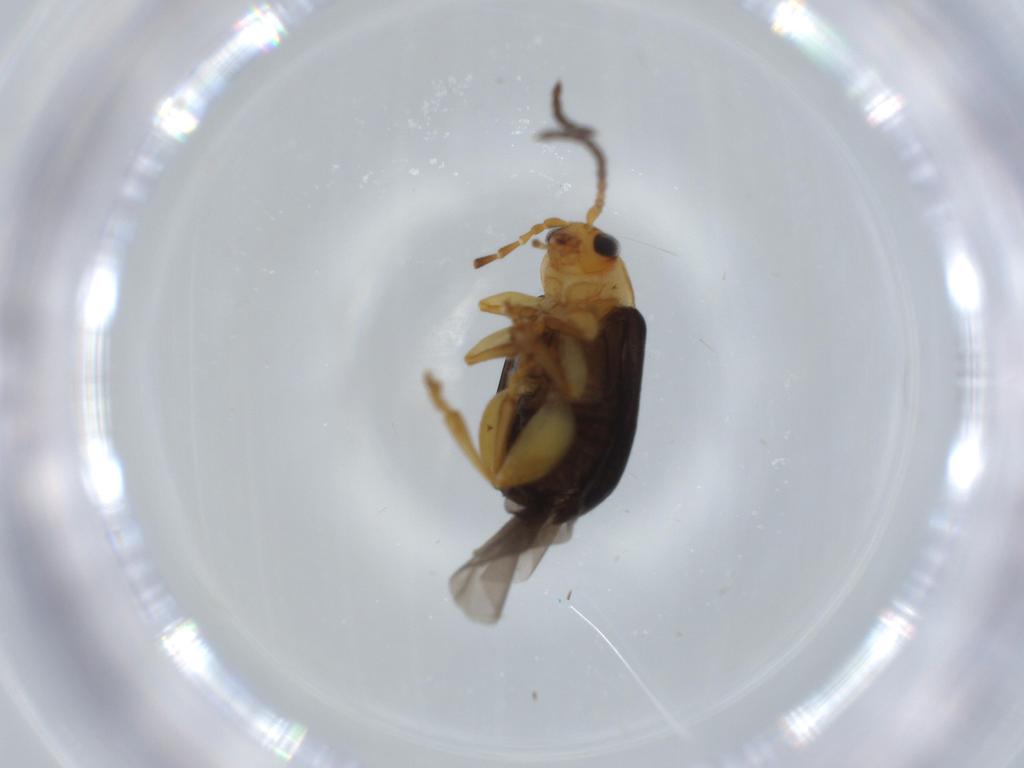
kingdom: Animalia
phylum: Arthropoda
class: Insecta
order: Coleoptera
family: Chrysomelidae
